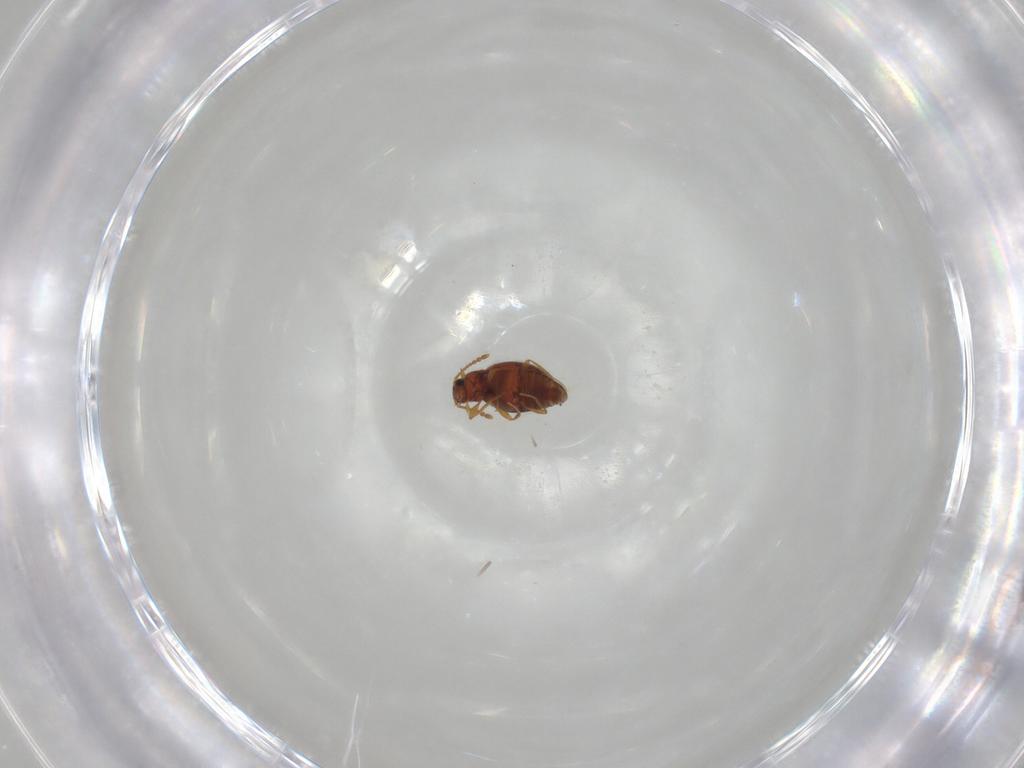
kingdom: Animalia
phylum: Arthropoda
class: Insecta
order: Coleoptera
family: Staphylinidae
